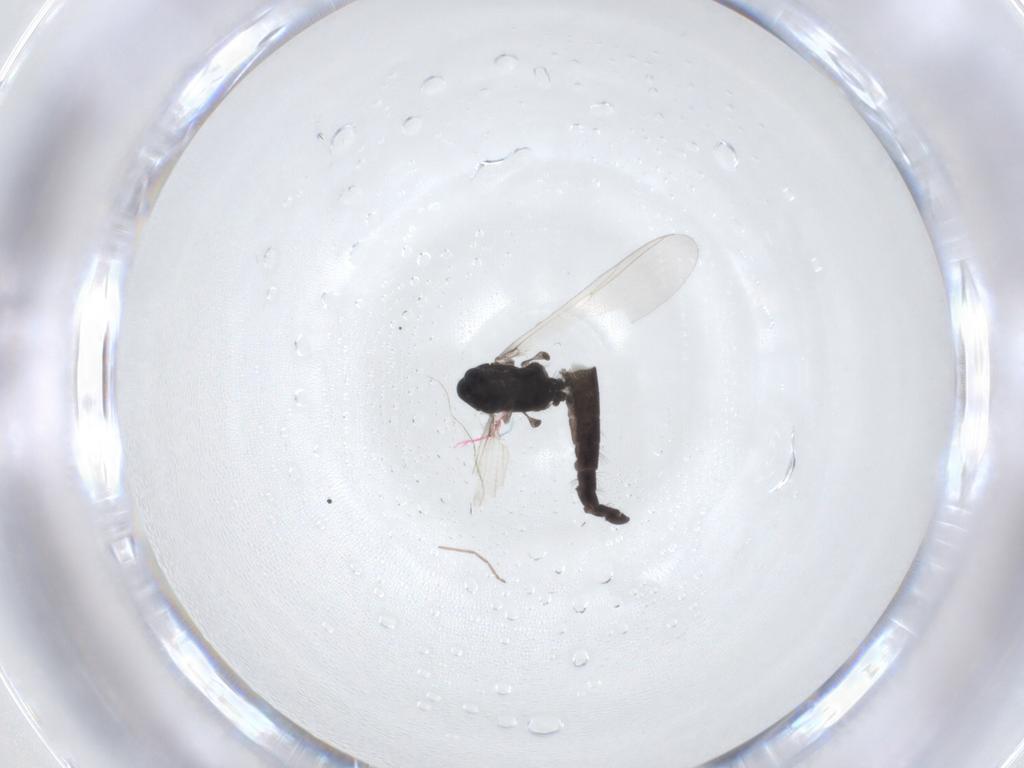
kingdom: Animalia
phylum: Arthropoda
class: Insecta
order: Diptera
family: Chironomidae
